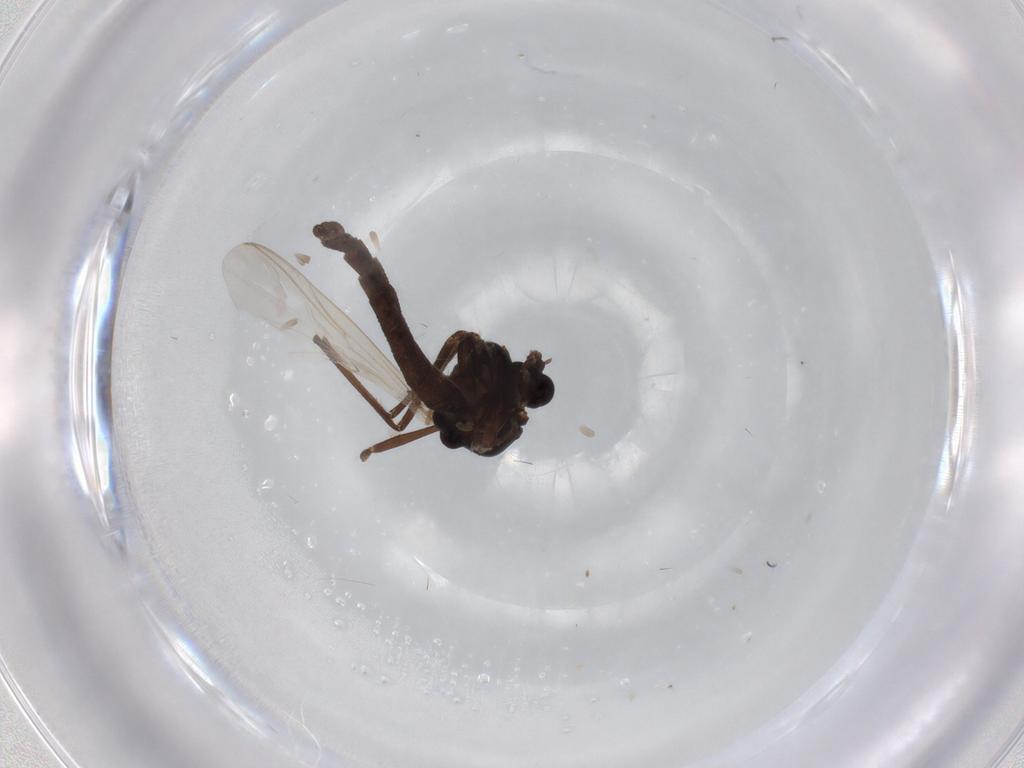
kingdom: Animalia
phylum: Arthropoda
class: Insecta
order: Diptera
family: Chironomidae
